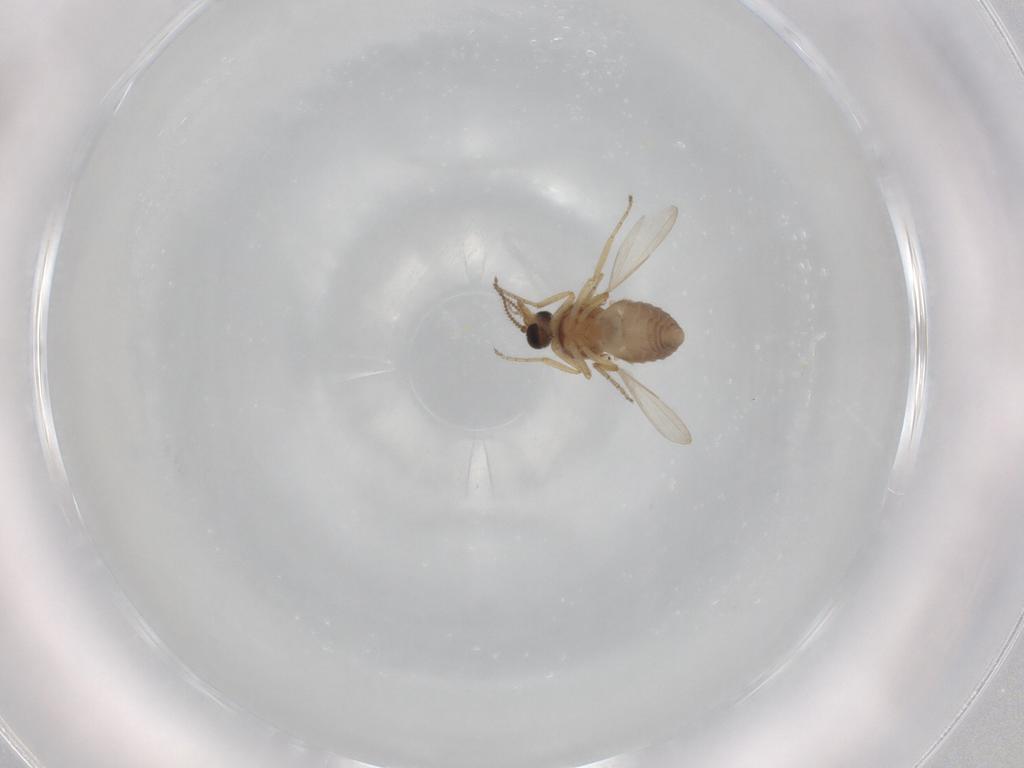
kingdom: Animalia
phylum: Arthropoda
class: Insecta
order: Diptera
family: Ceratopogonidae
